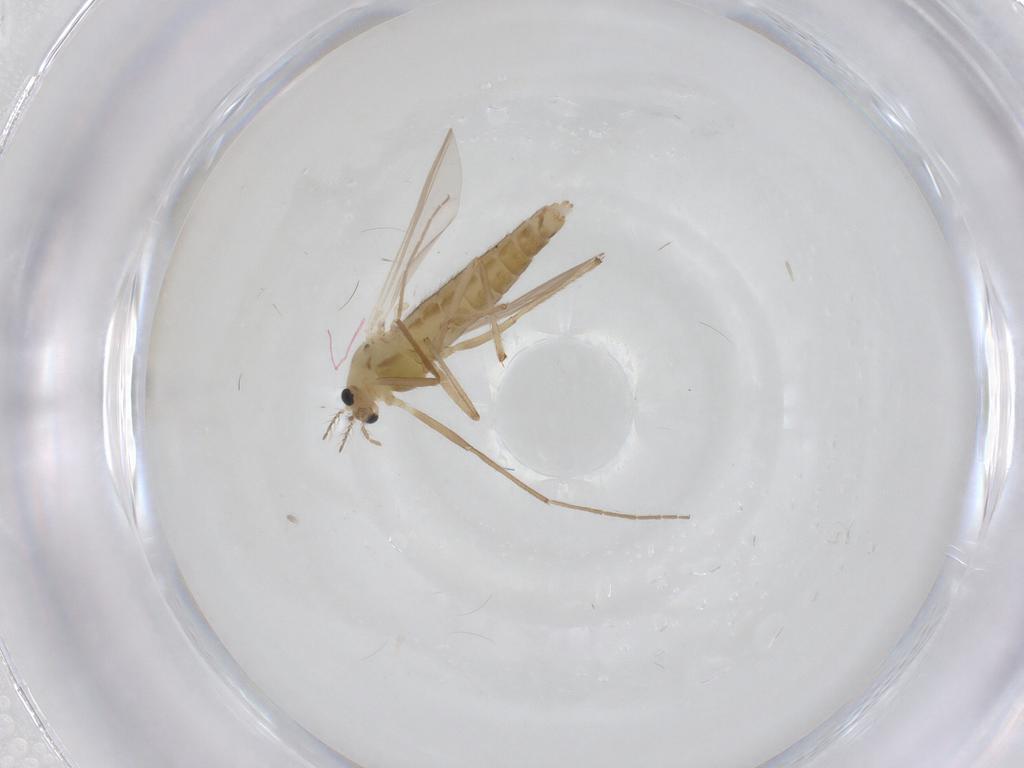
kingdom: Animalia
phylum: Arthropoda
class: Insecta
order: Diptera
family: Chironomidae
